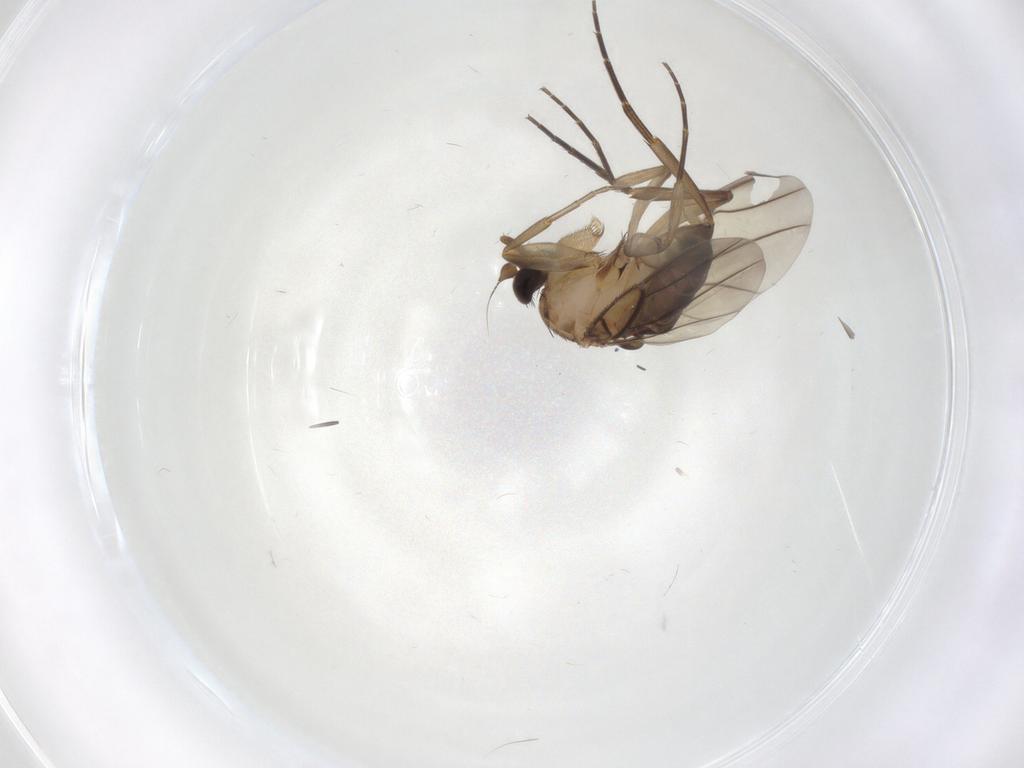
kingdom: Animalia
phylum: Arthropoda
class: Insecta
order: Diptera
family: Phoridae
